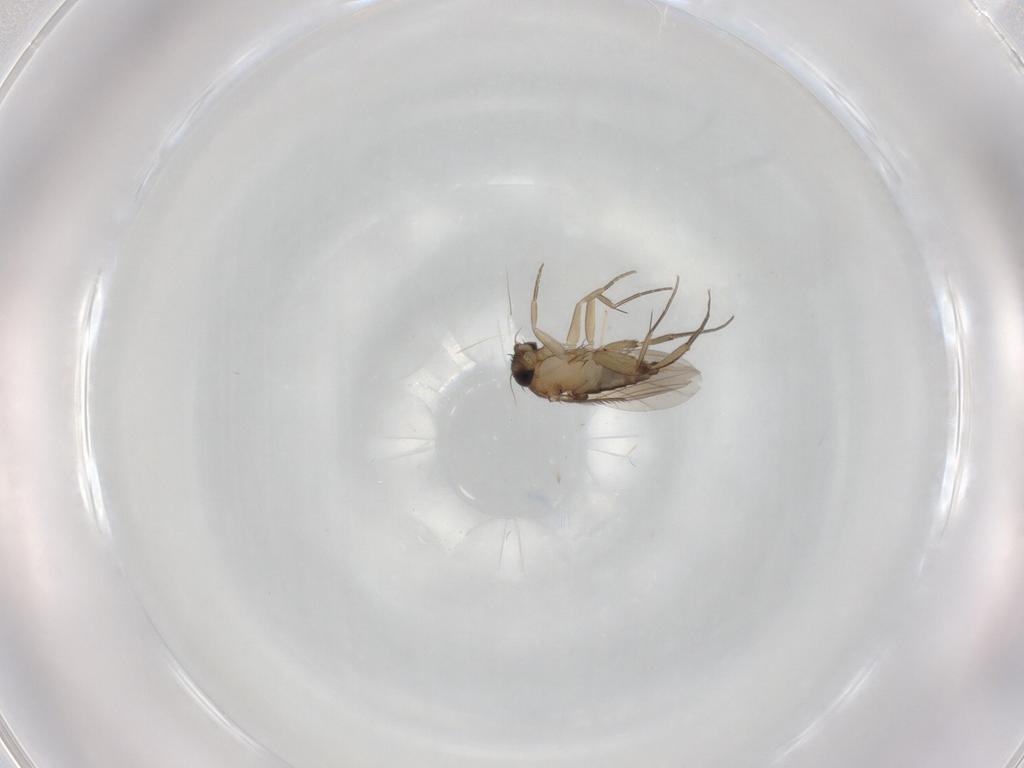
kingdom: Animalia
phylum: Arthropoda
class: Insecta
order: Diptera
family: Phoridae
